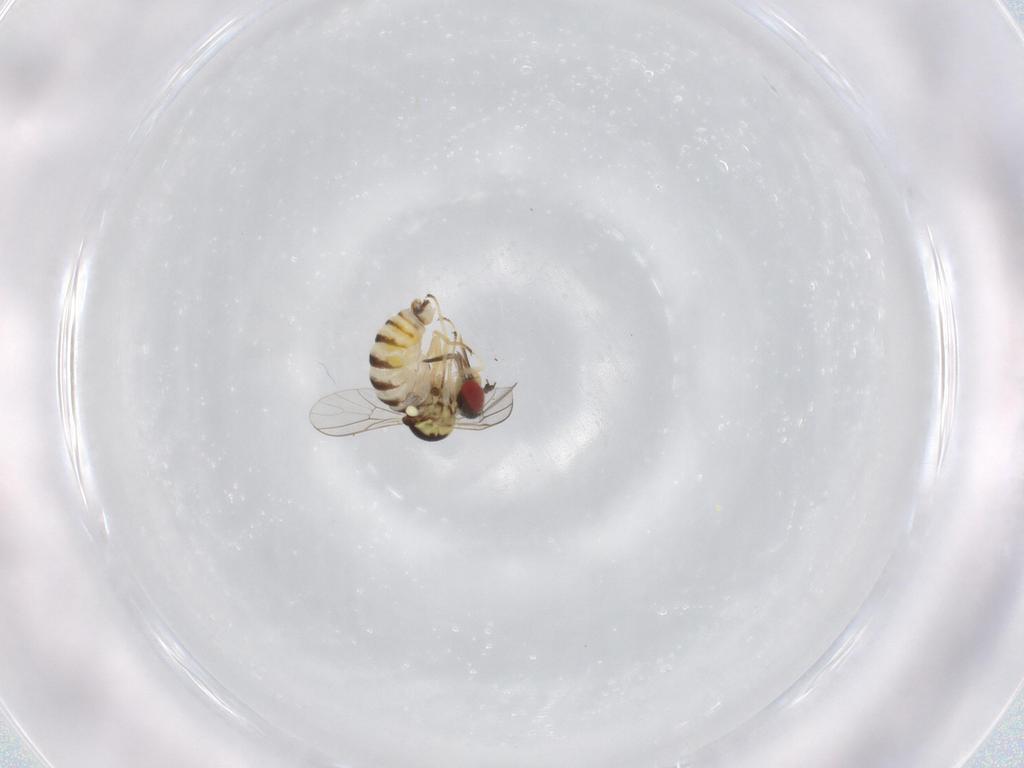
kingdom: Animalia
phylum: Arthropoda
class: Insecta
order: Diptera
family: Bombyliidae
